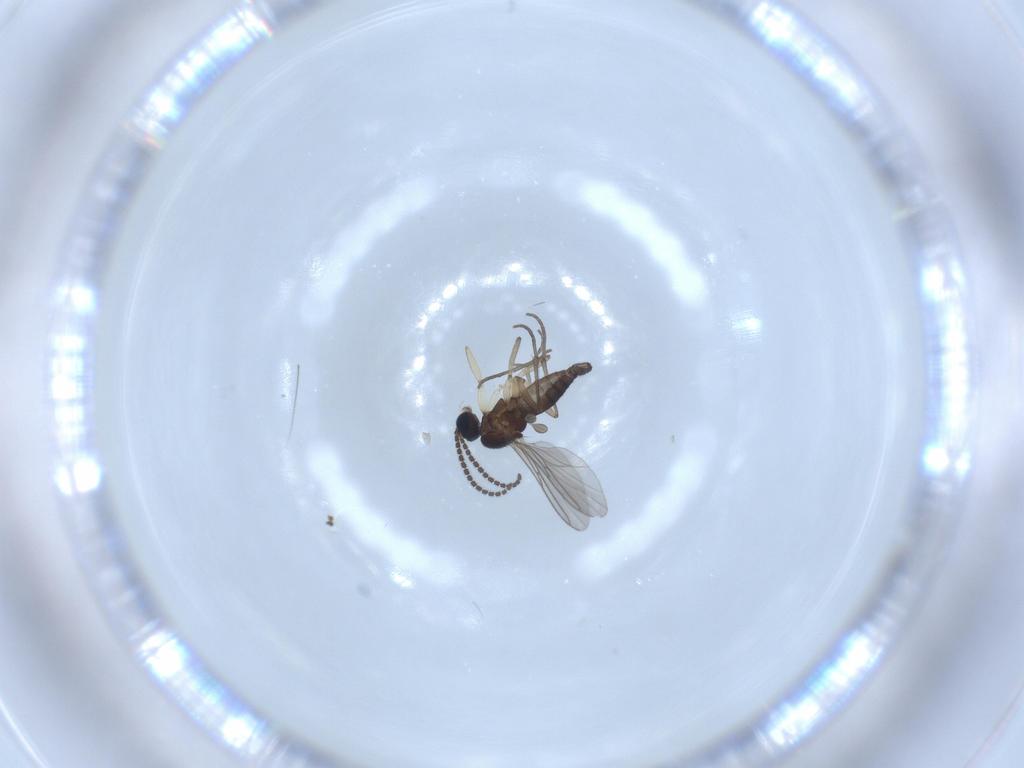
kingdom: Animalia
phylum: Arthropoda
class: Insecta
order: Diptera
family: Sciaridae
